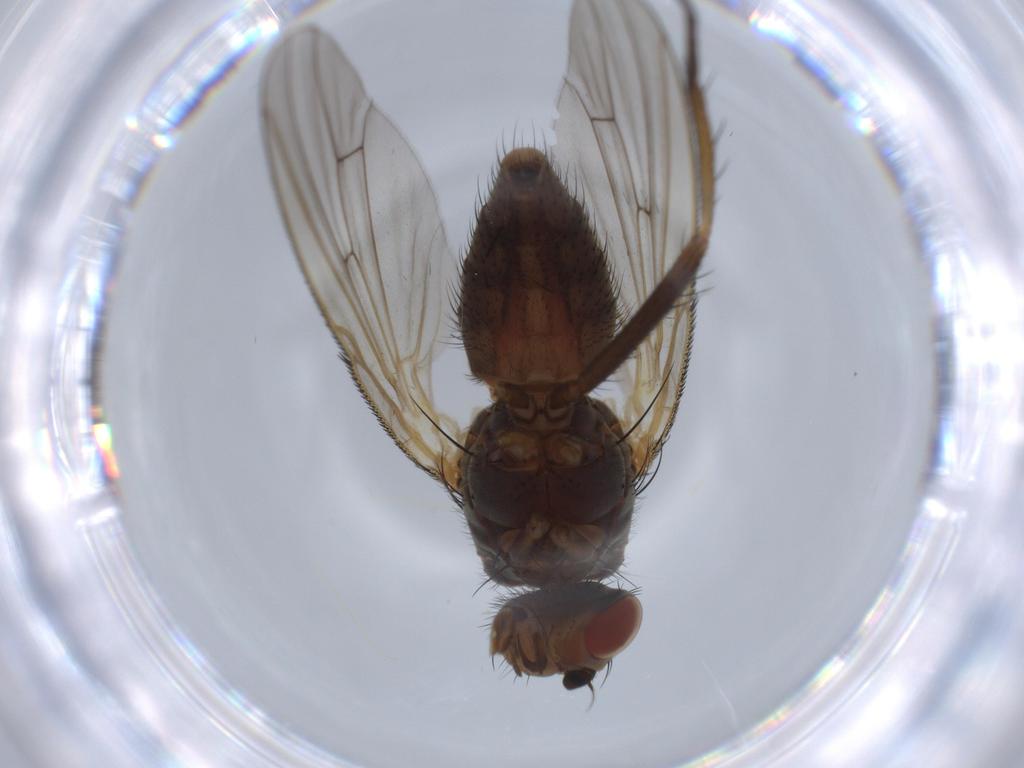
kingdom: Animalia
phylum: Arthropoda
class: Insecta
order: Diptera
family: Anthomyiidae
